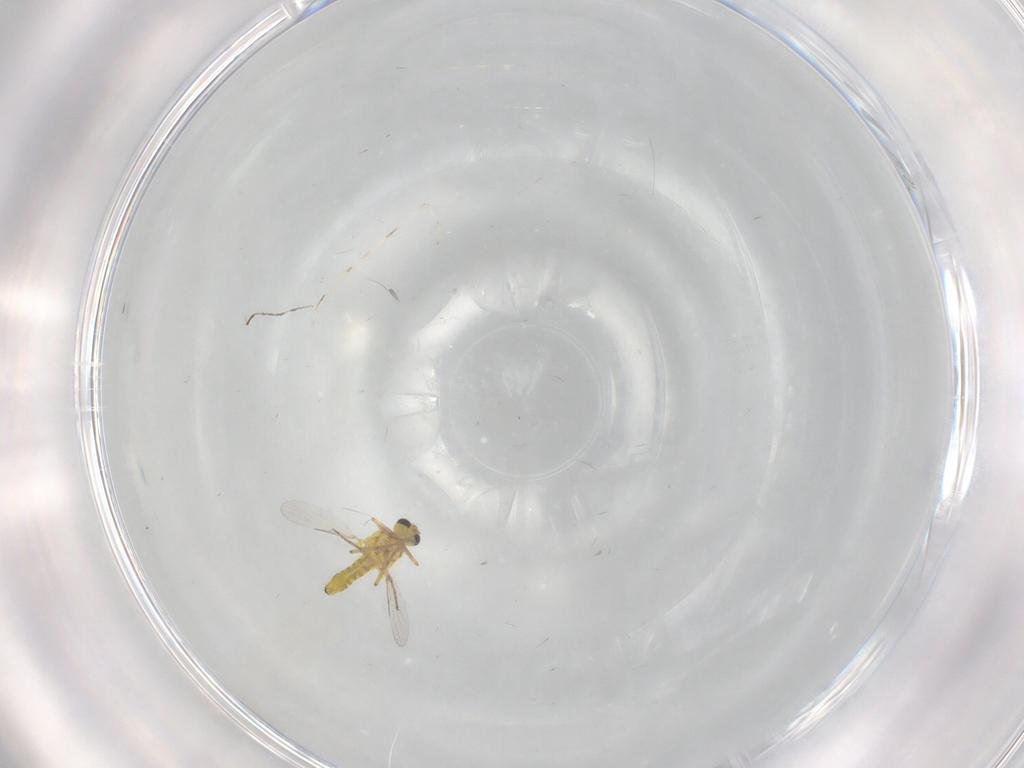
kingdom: Animalia
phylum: Arthropoda
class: Insecta
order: Diptera
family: Ceratopogonidae
